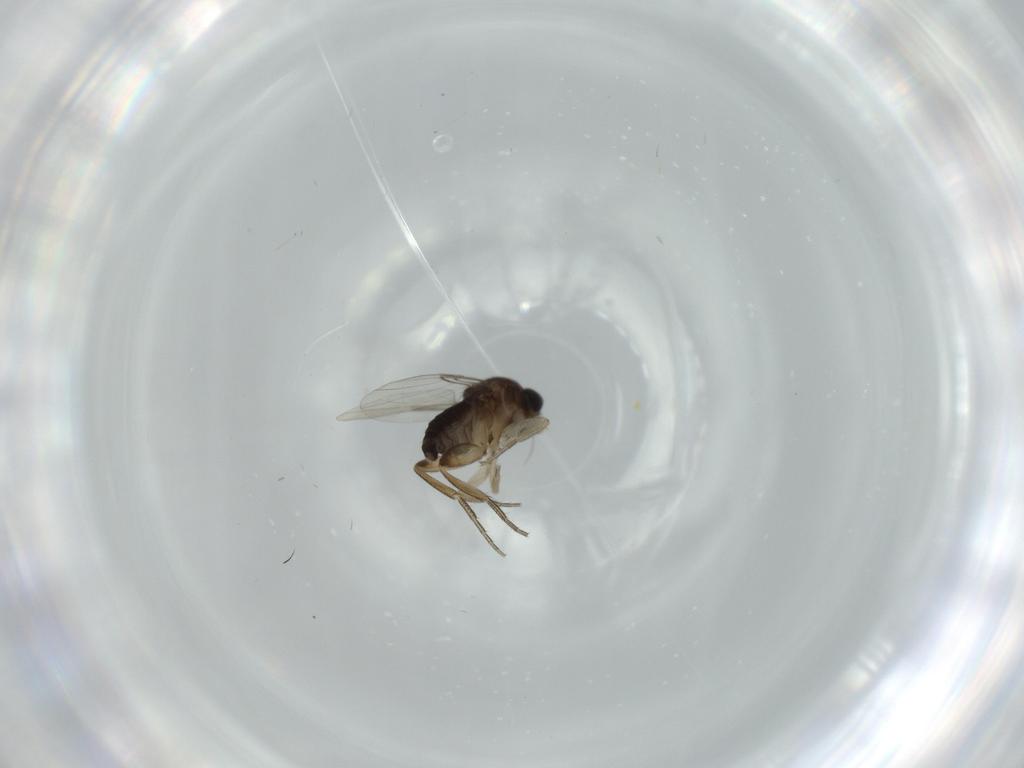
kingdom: Animalia
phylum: Arthropoda
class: Insecta
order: Diptera
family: Phoridae
